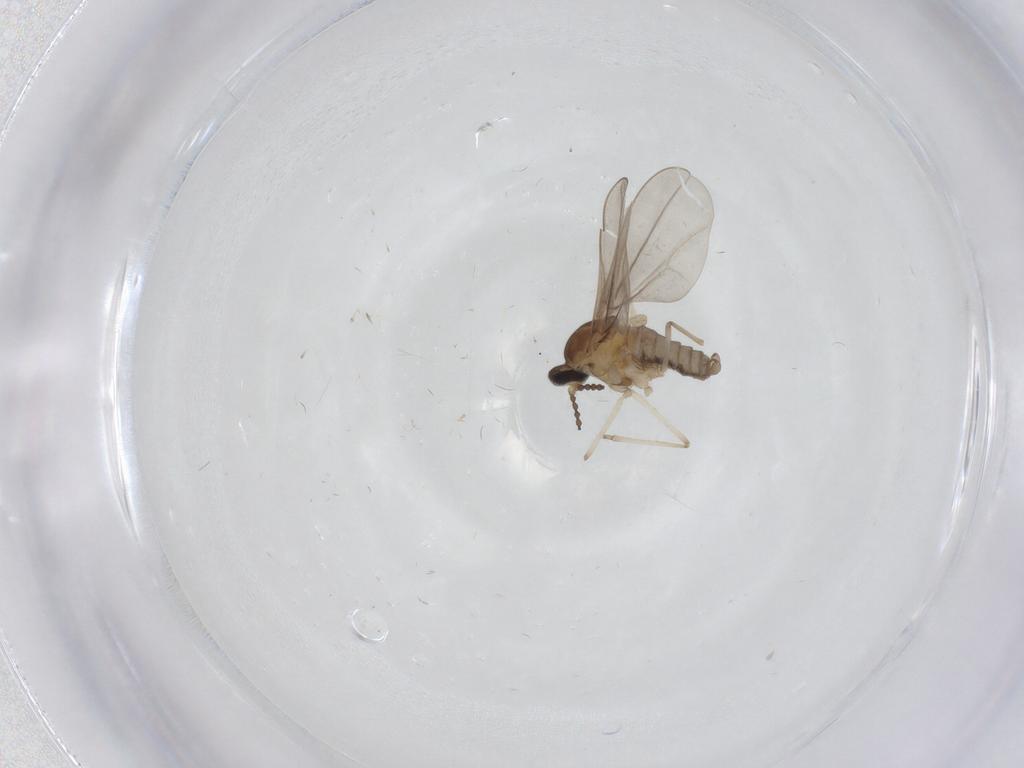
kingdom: Animalia
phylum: Arthropoda
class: Insecta
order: Diptera
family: Cecidomyiidae
